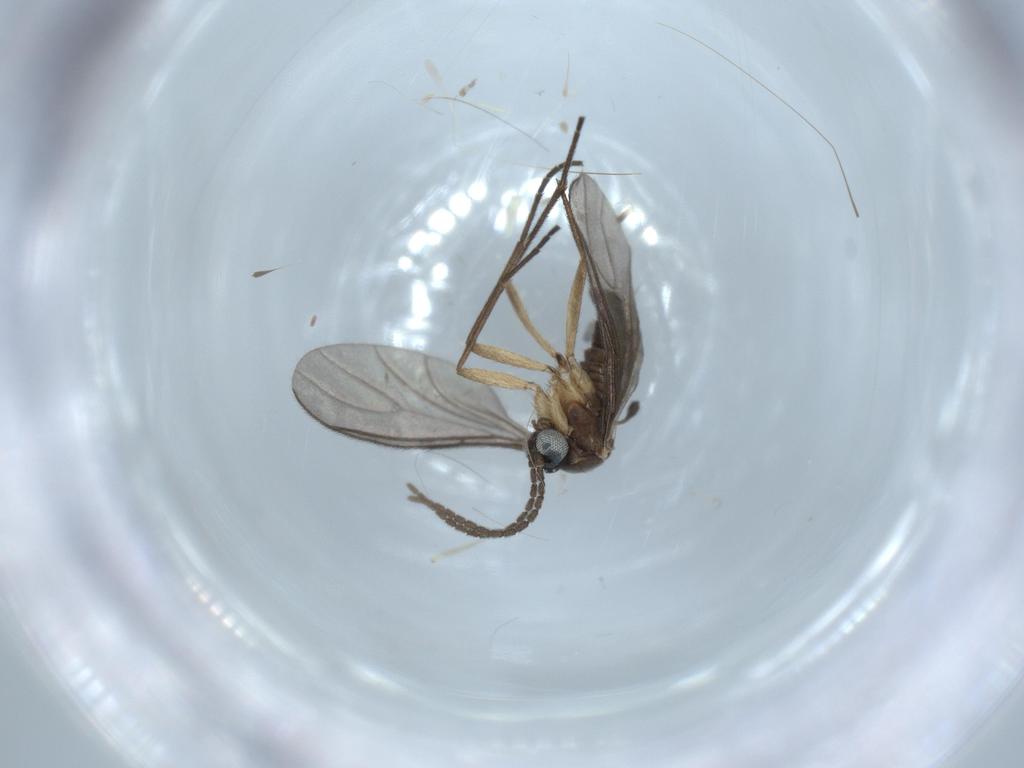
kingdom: Animalia
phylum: Arthropoda
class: Insecta
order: Diptera
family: Sciaridae
